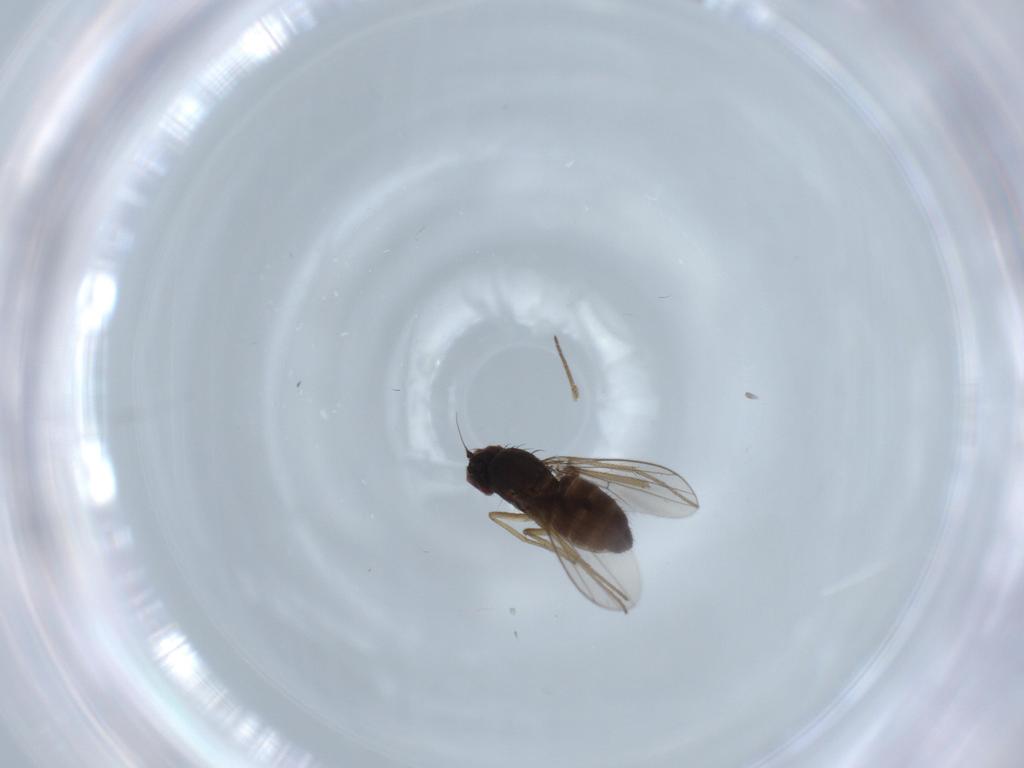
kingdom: Animalia
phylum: Arthropoda
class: Insecta
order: Diptera
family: Dolichopodidae
